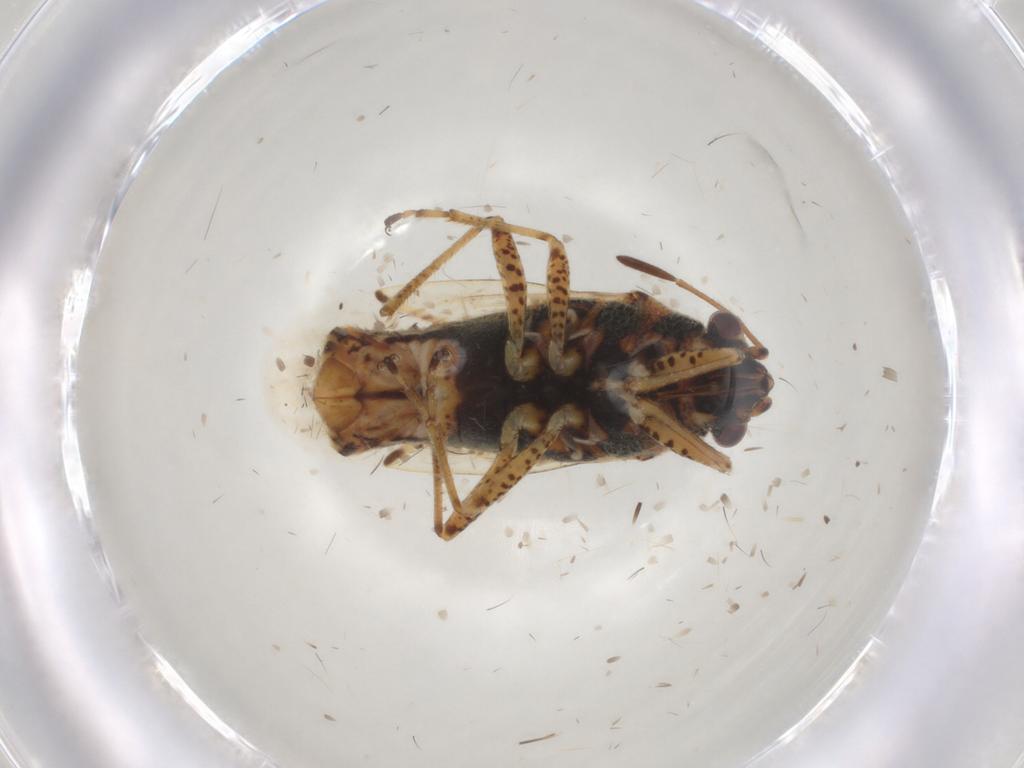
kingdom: Animalia
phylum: Arthropoda
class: Insecta
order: Hemiptera
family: Lygaeidae
